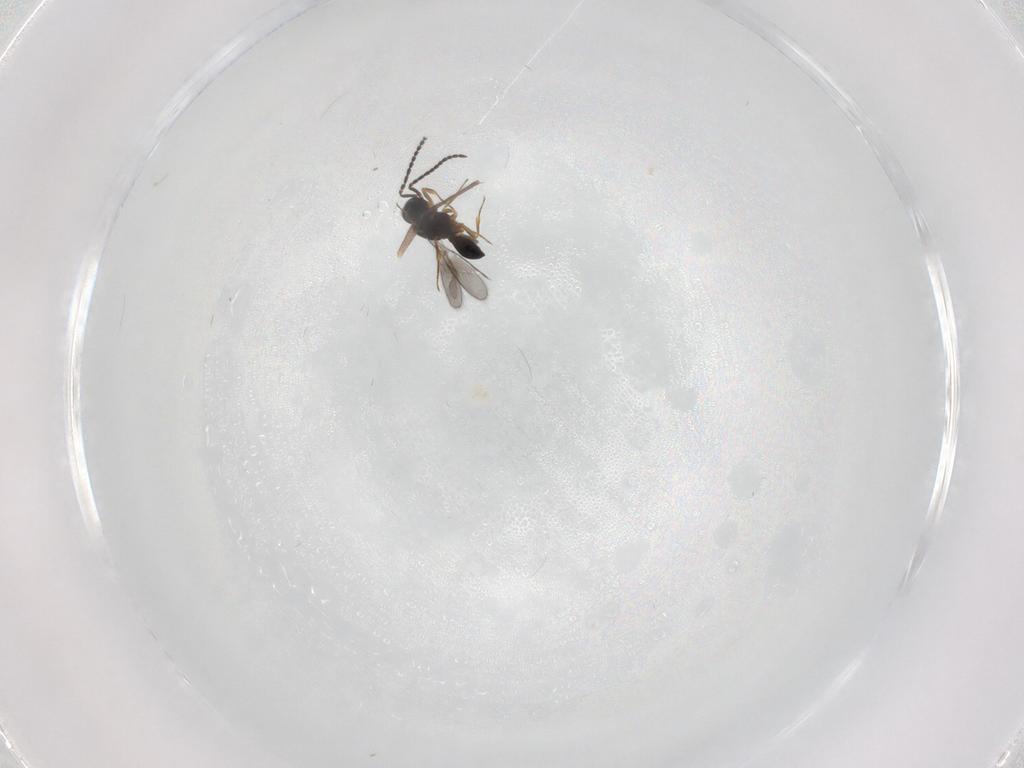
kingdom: Animalia
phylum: Arthropoda
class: Insecta
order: Hymenoptera
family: Scelionidae
